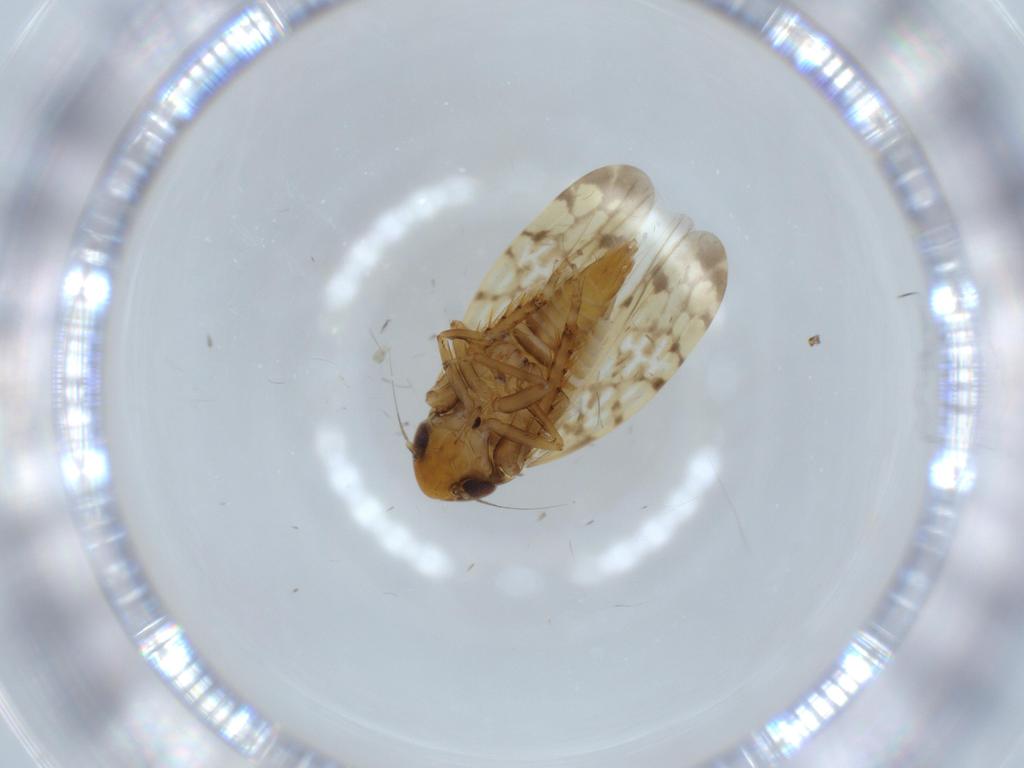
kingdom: Animalia
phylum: Arthropoda
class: Insecta
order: Hemiptera
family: Cicadellidae
